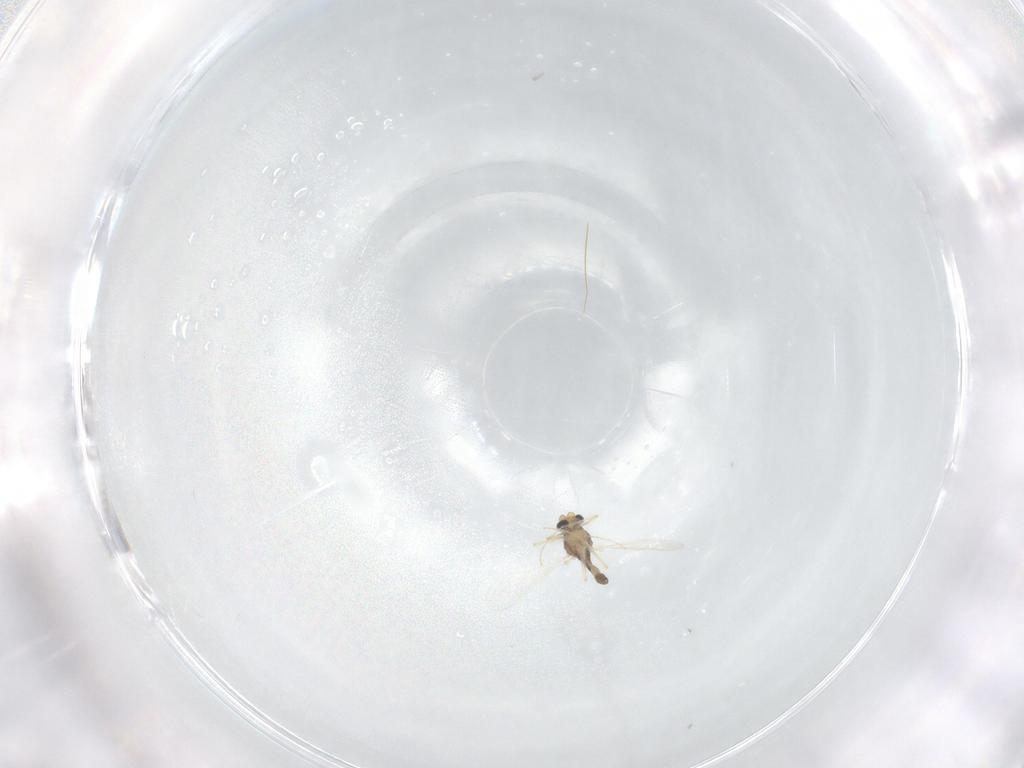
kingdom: Animalia
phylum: Arthropoda
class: Insecta
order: Diptera
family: Chironomidae
